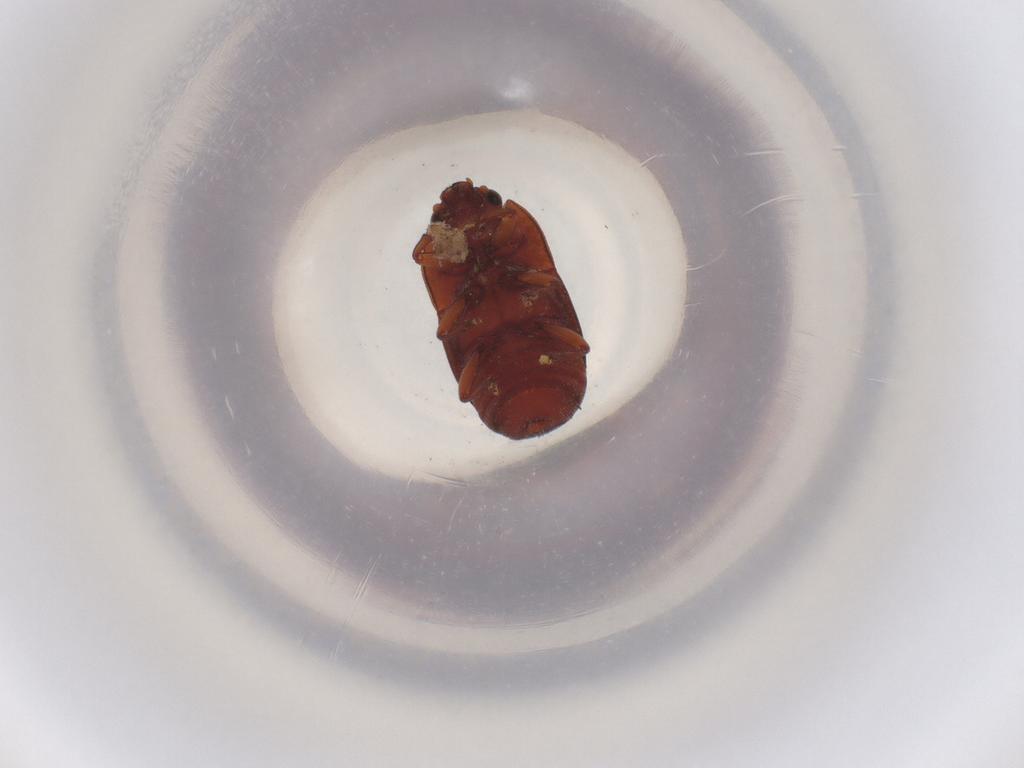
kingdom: Animalia
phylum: Arthropoda
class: Insecta
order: Coleoptera
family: Nitidulidae
